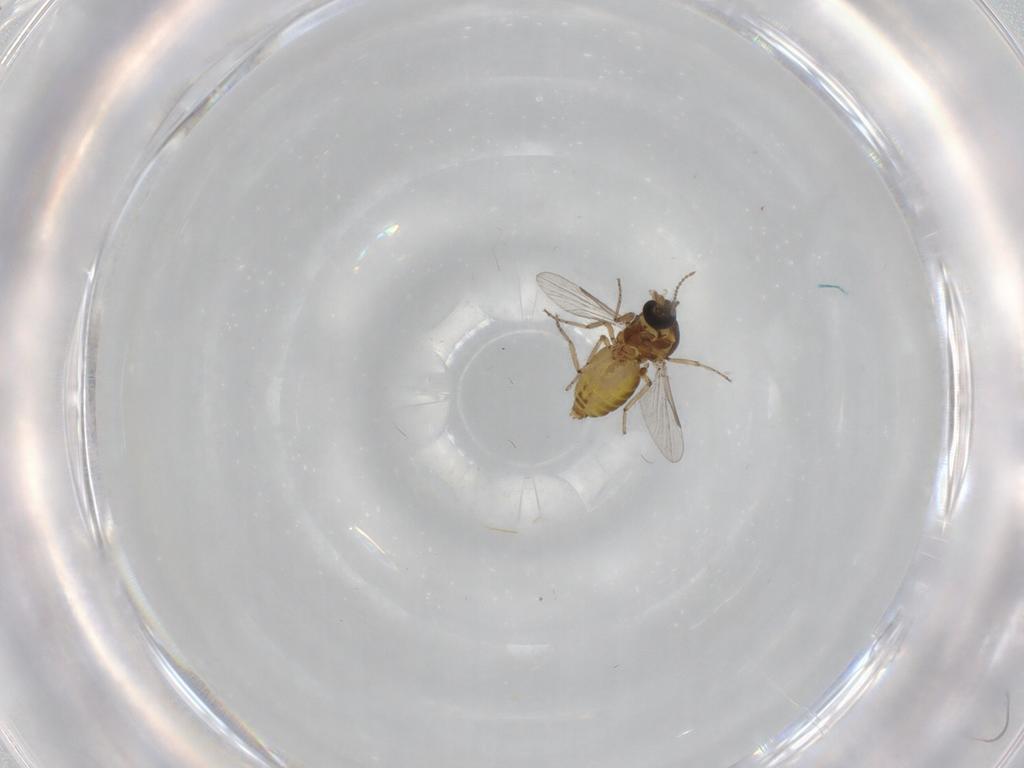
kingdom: Animalia
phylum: Arthropoda
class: Insecta
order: Diptera
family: Ceratopogonidae
